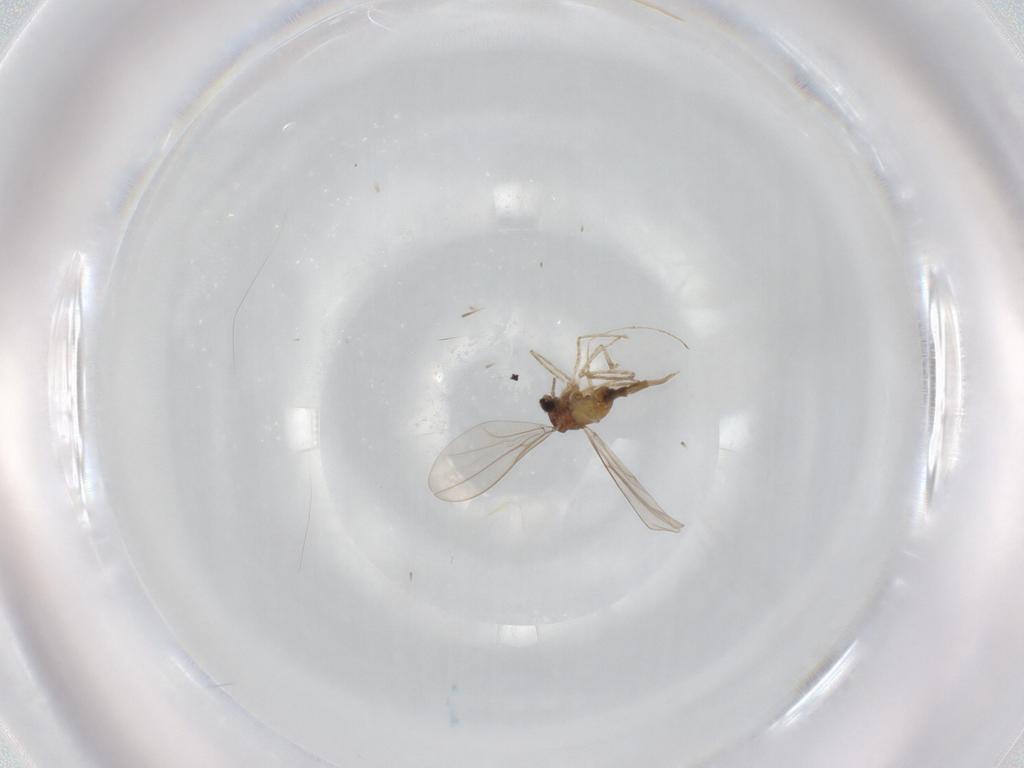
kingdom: Animalia
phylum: Arthropoda
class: Insecta
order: Diptera
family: Cecidomyiidae
